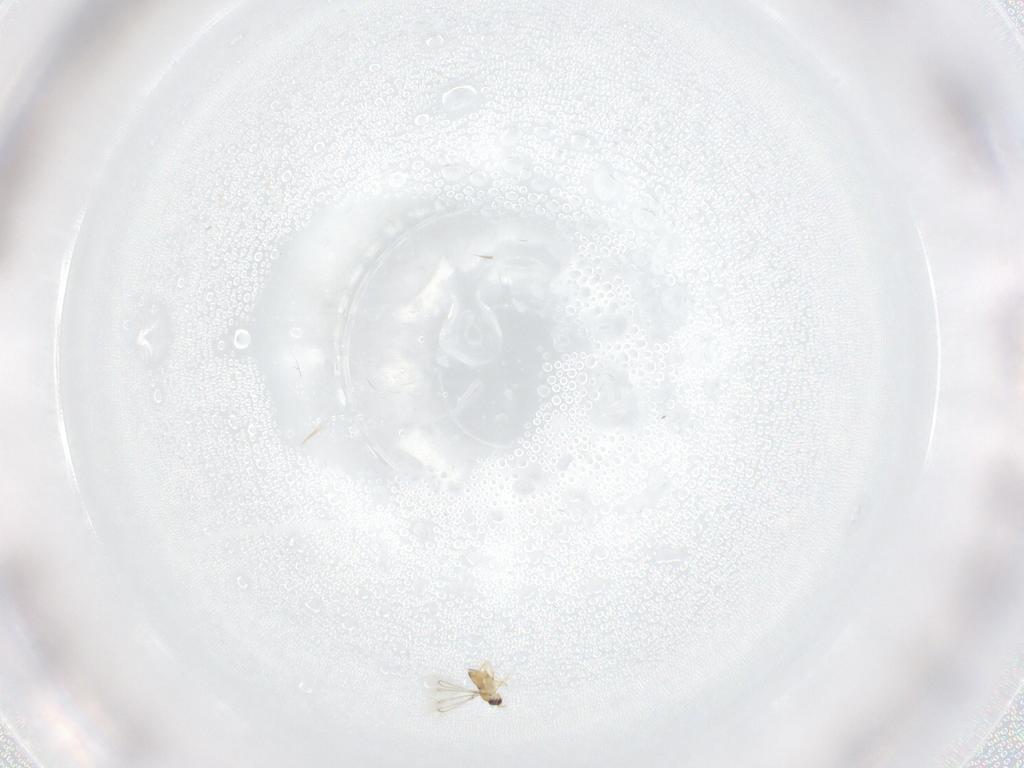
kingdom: Animalia
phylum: Arthropoda
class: Insecta
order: Hymenoptera
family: Mymaridae
